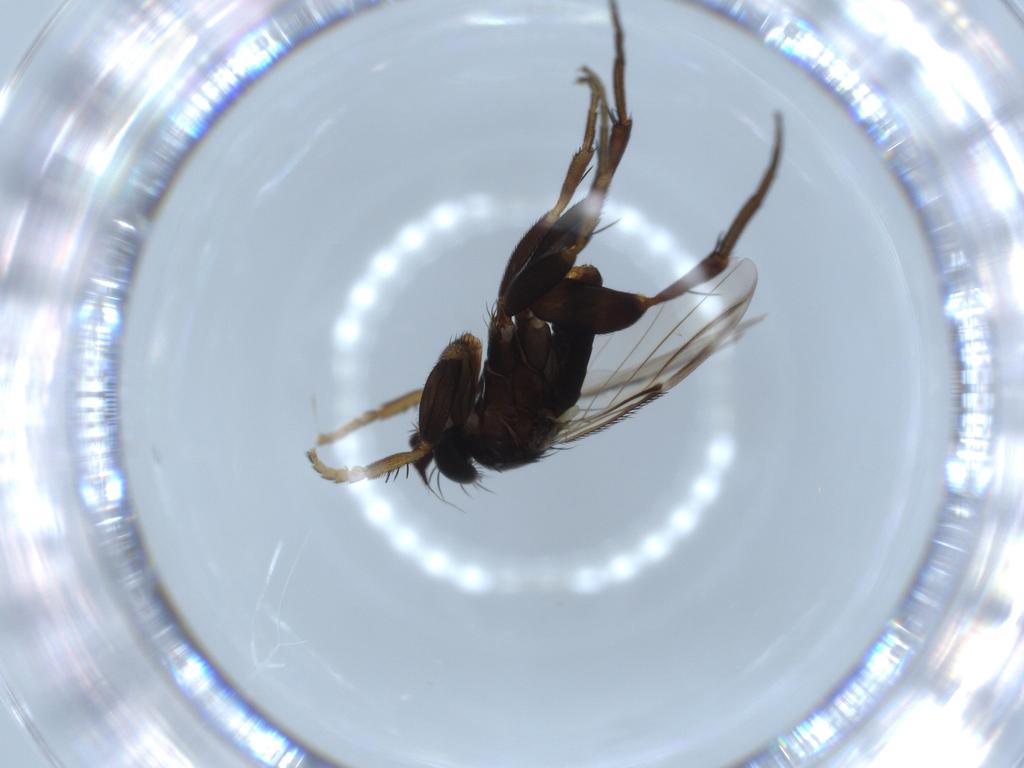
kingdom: Animalia
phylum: Arthropoda
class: Insecta
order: Diptera
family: Phoridae
